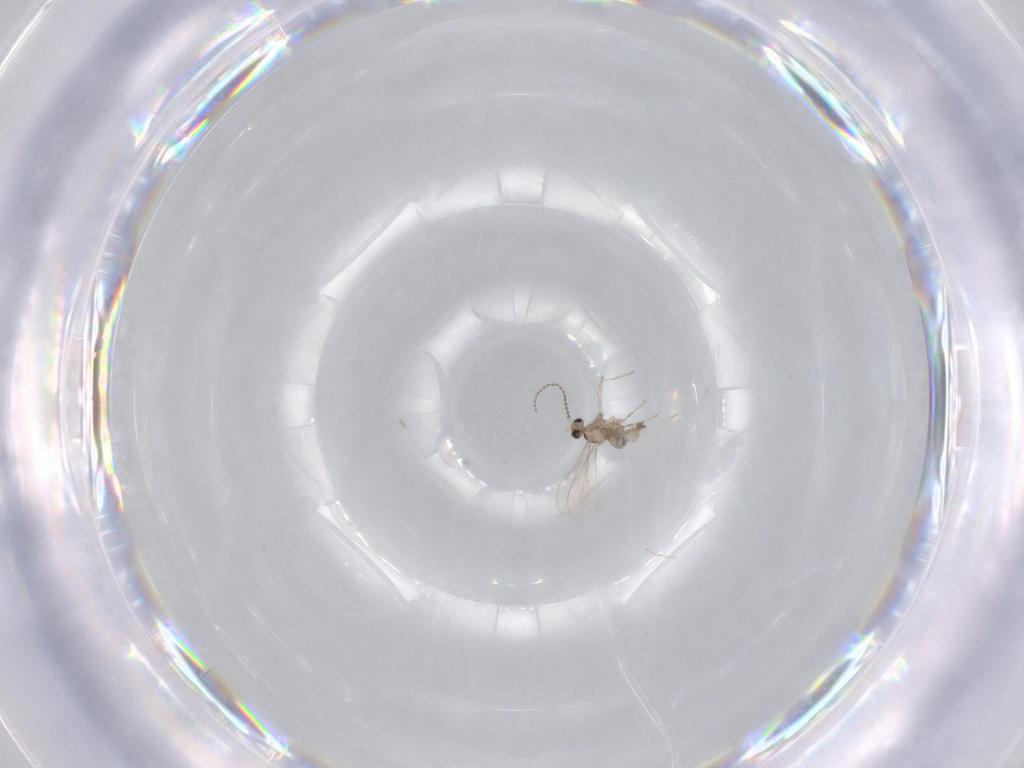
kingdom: Animalia
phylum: Arthropoda
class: Insecta
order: Diptera
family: Cecidomyiidae
